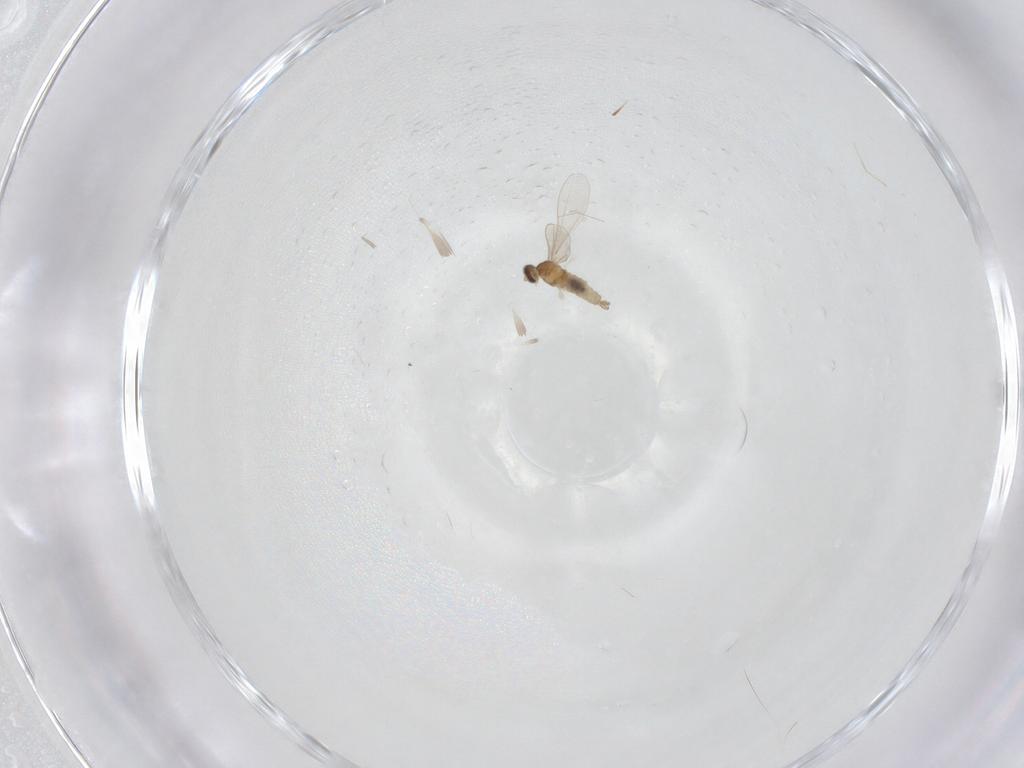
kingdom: Animalia
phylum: Arthropoda
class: Insecta
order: Diptera
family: Cecidomyiidae
